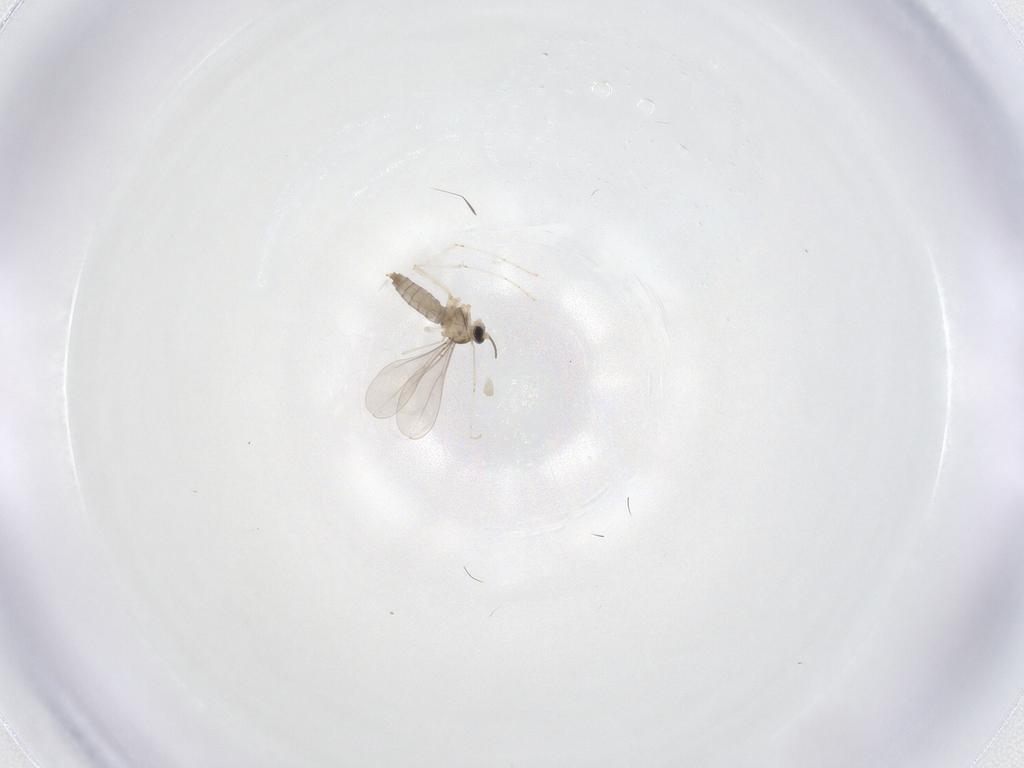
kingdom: Animalia
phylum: Arthropoda
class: Insecta
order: Diptera
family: Cecidomyiidae
